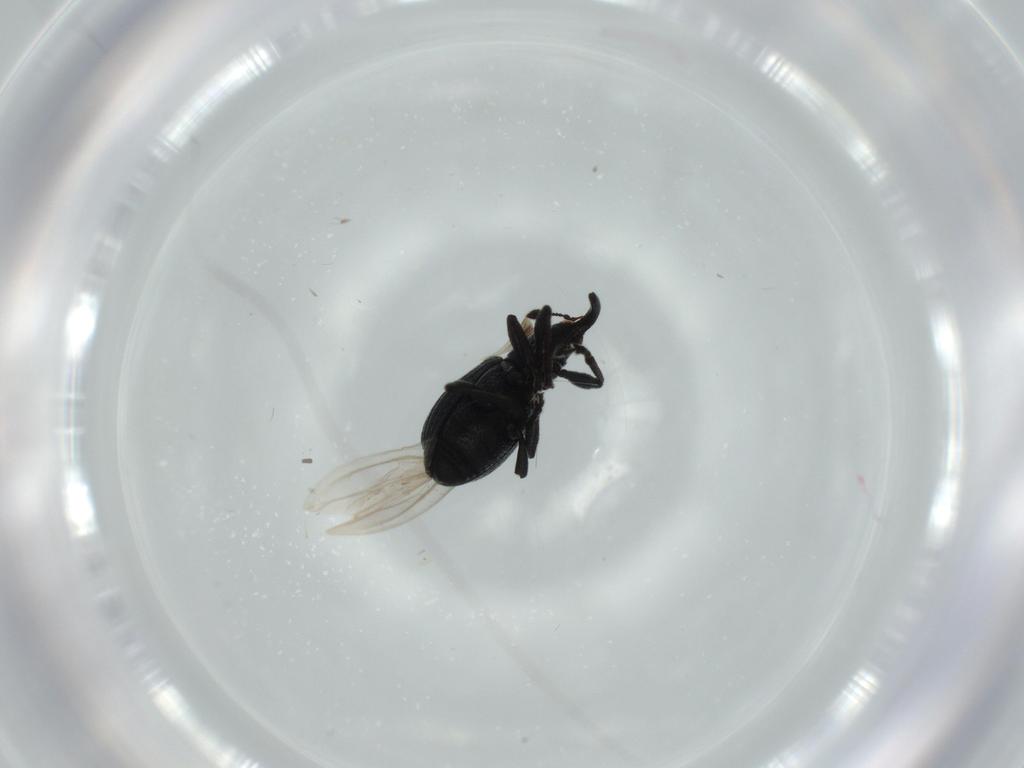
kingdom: Animalia
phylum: Arthropoda
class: Insecta
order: Coleoptera
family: Brentidae
